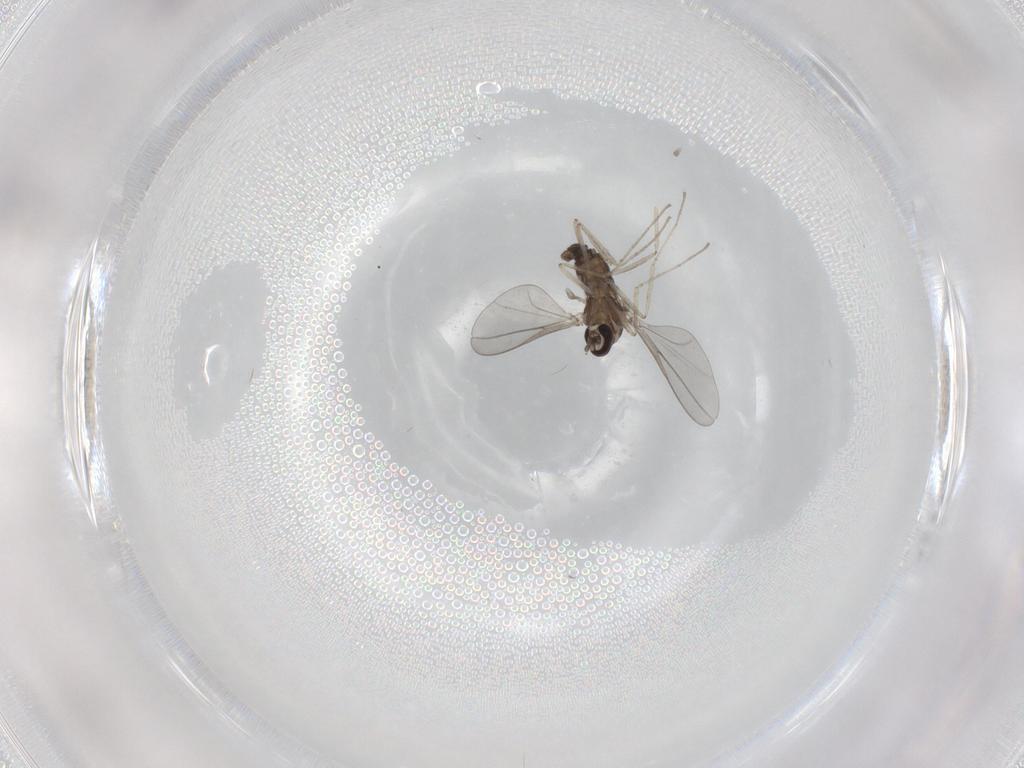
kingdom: Animalia
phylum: Arthropoda
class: Insecta
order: Diptera
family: Cecidomyiidae
